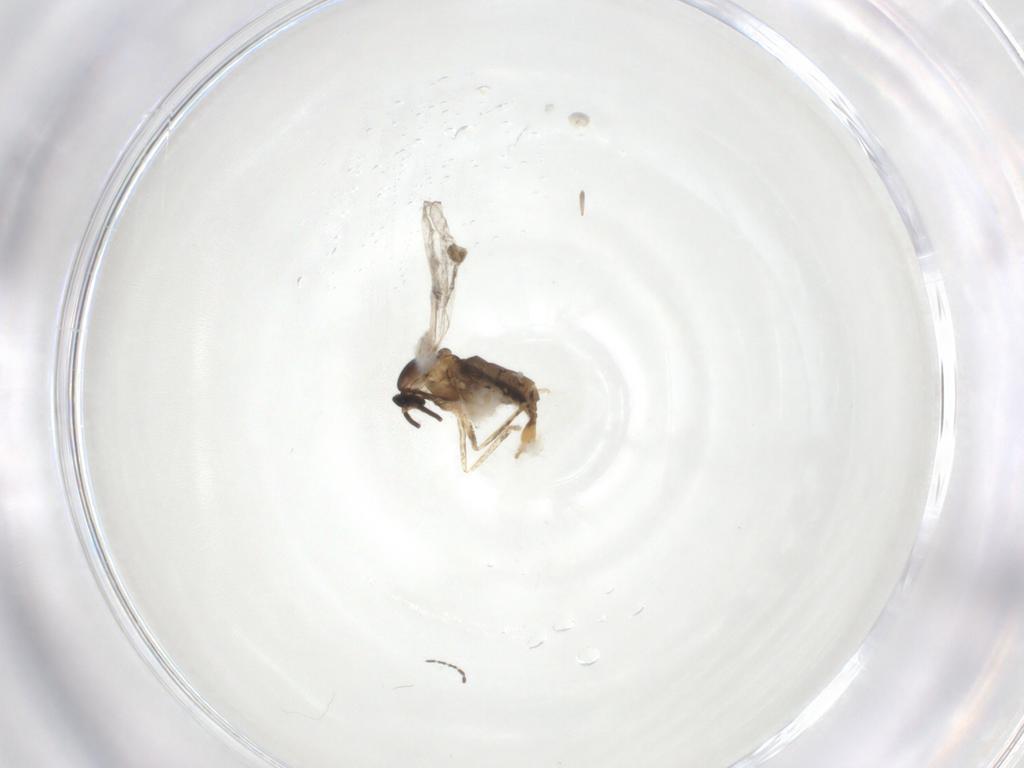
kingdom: Animalia
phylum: Arthropoda
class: Insecta
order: Diptera
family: Cecidomyiidae
